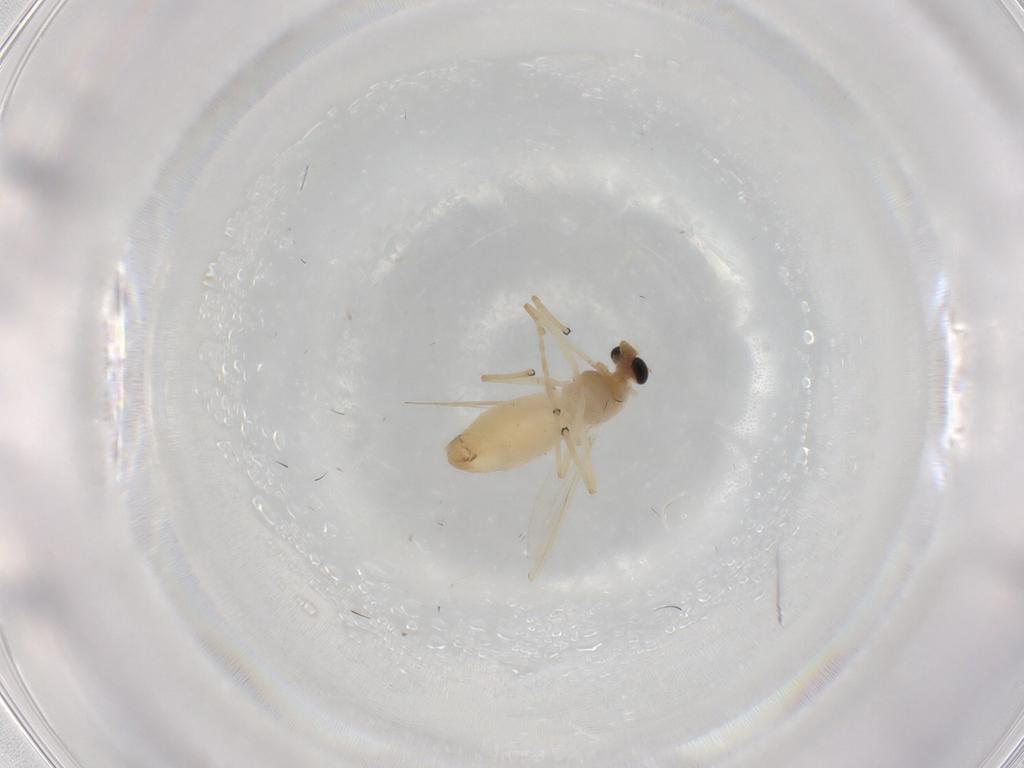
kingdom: Animalia
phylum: Arthropoda
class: Insecta
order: Diptera
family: Chironomidae
